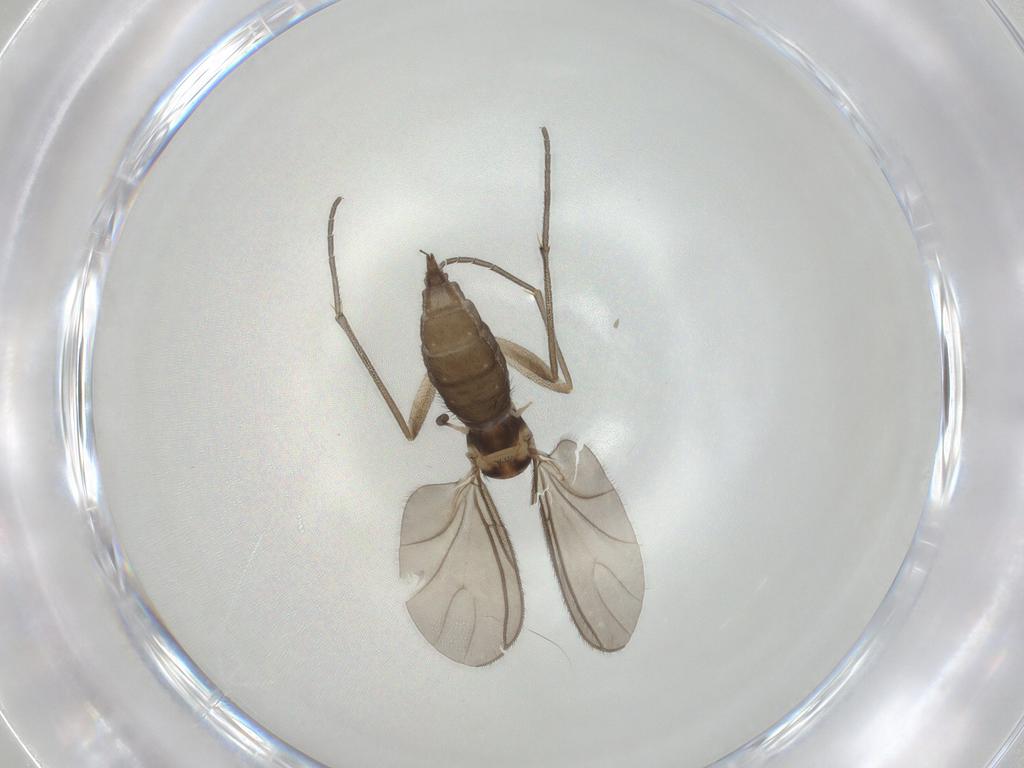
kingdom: Animalia
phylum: Arthropoda
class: Insecta
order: Diptera
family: Sciaridae
